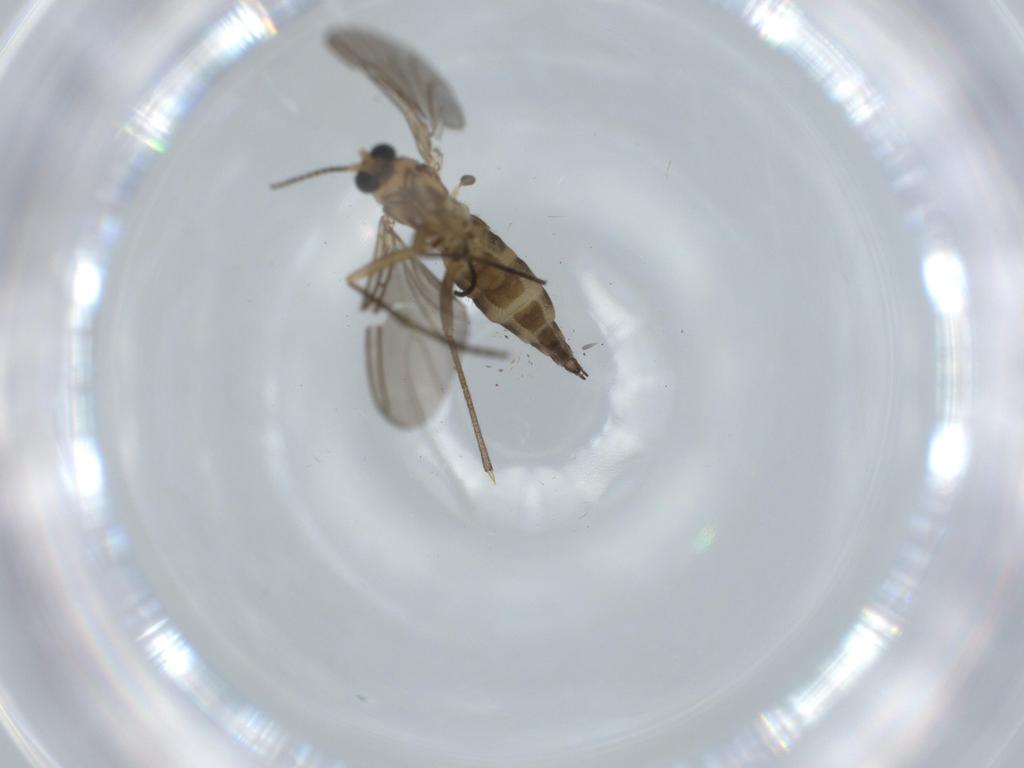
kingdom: Animalia
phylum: Arthropoda
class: Insecta
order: Diptera
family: Sciaridae
